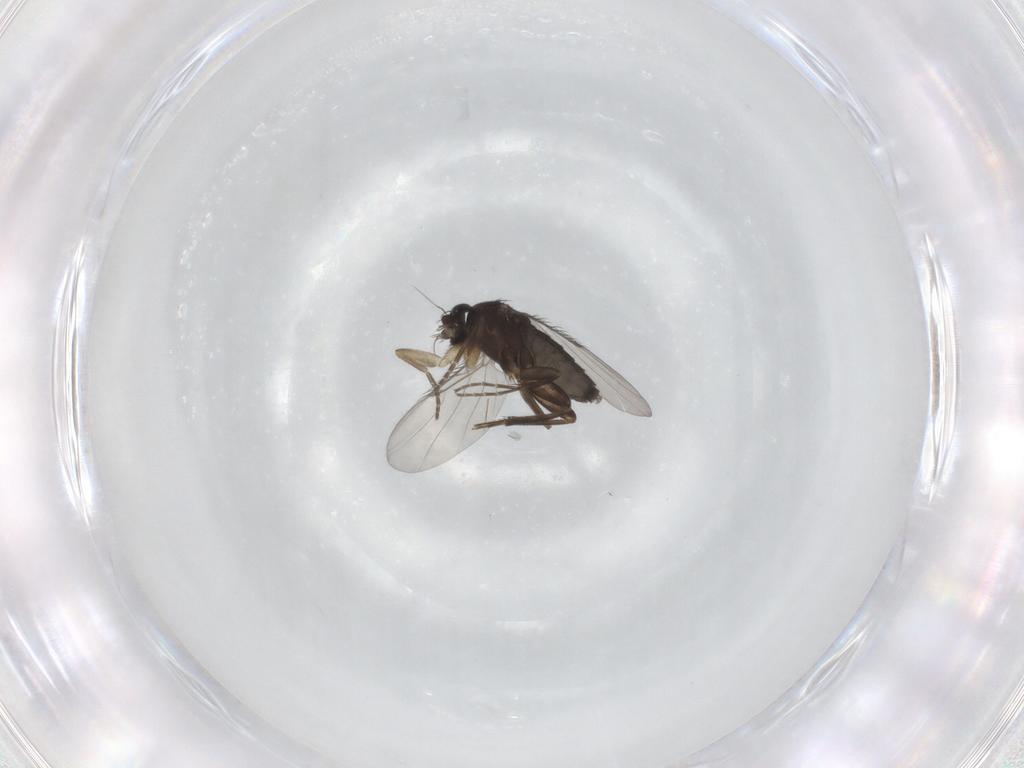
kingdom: Animalia
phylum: Arthropoda
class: Insecta
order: Diptera
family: Phoridae
